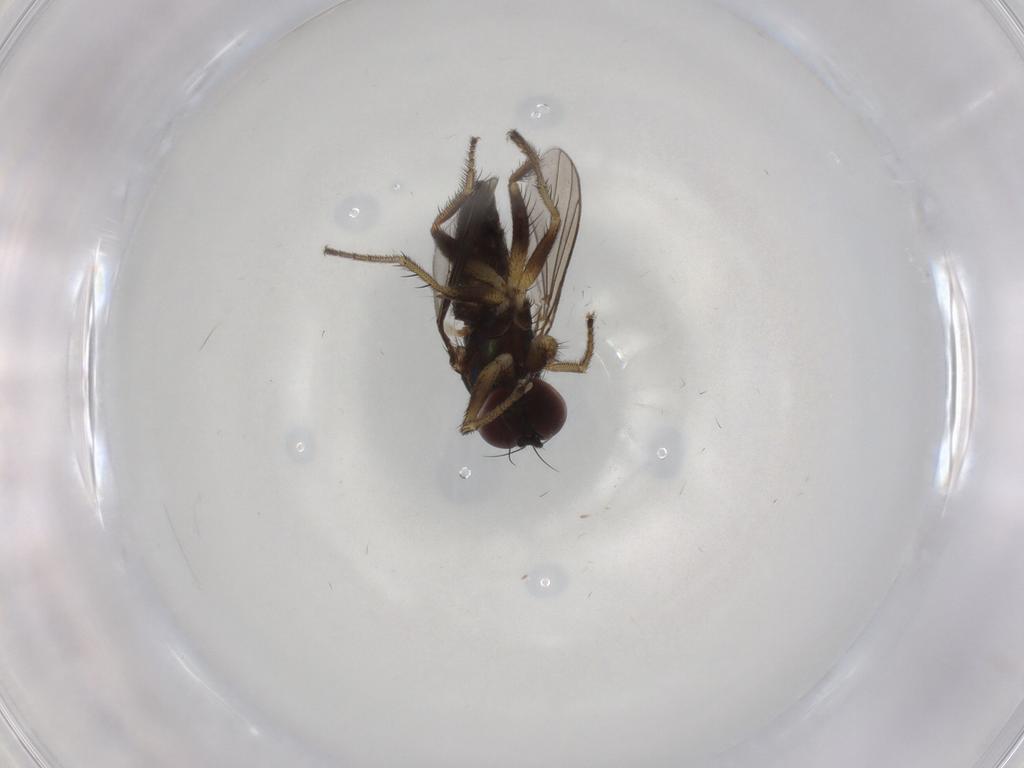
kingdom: Animalia
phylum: Arthropoda
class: Insecta
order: Diptera
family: Dolichopodidae
